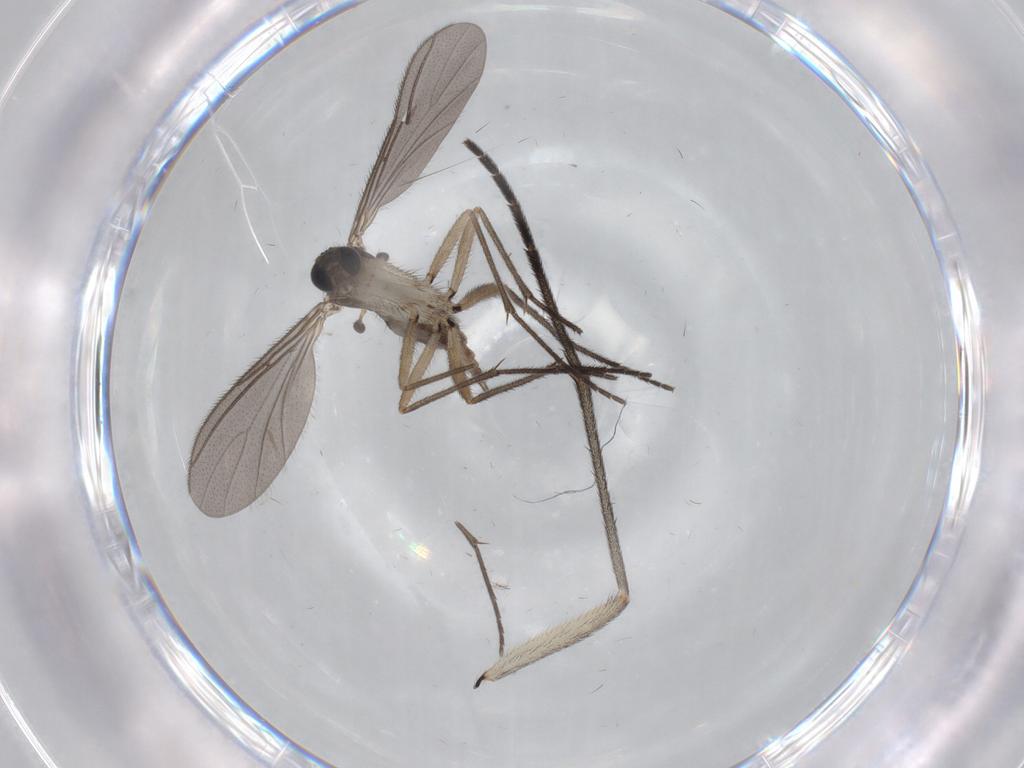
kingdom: Animalia
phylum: Arthropoda
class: Insecta
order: Diptera
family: Sciaridae
